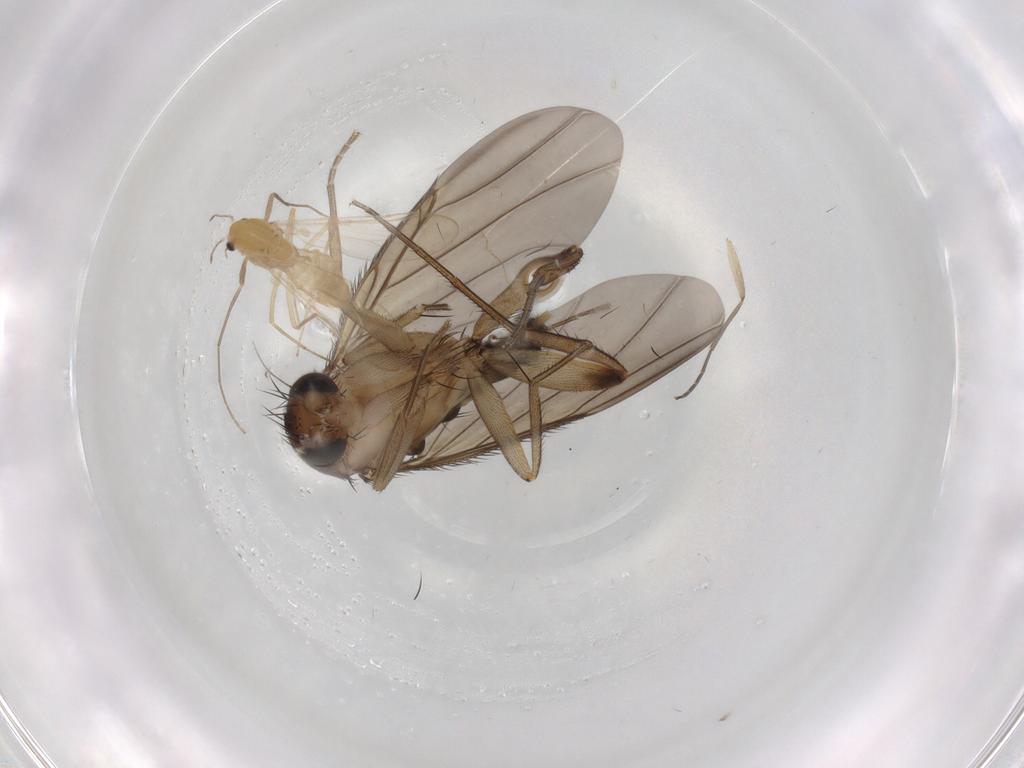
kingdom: Animalia
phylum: Arthropoda
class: Insecta
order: Diptera
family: Phoridae
